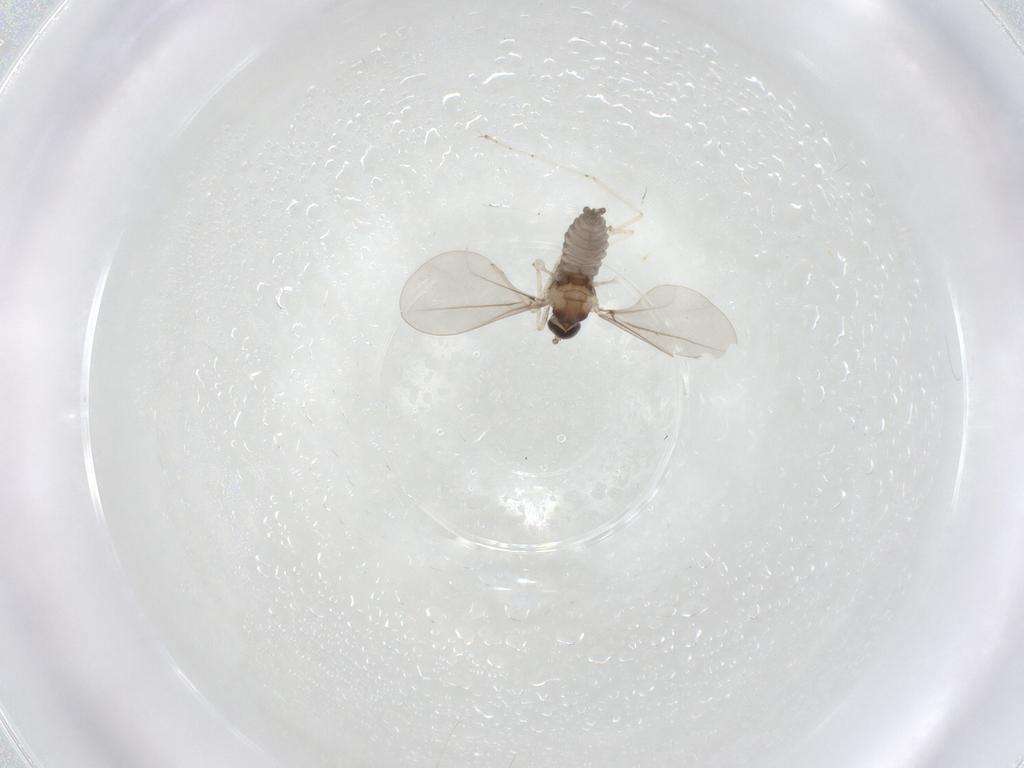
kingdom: Animalia
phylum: Arthropoda
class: Insecta
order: Diptera
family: Cecidomyiidae
